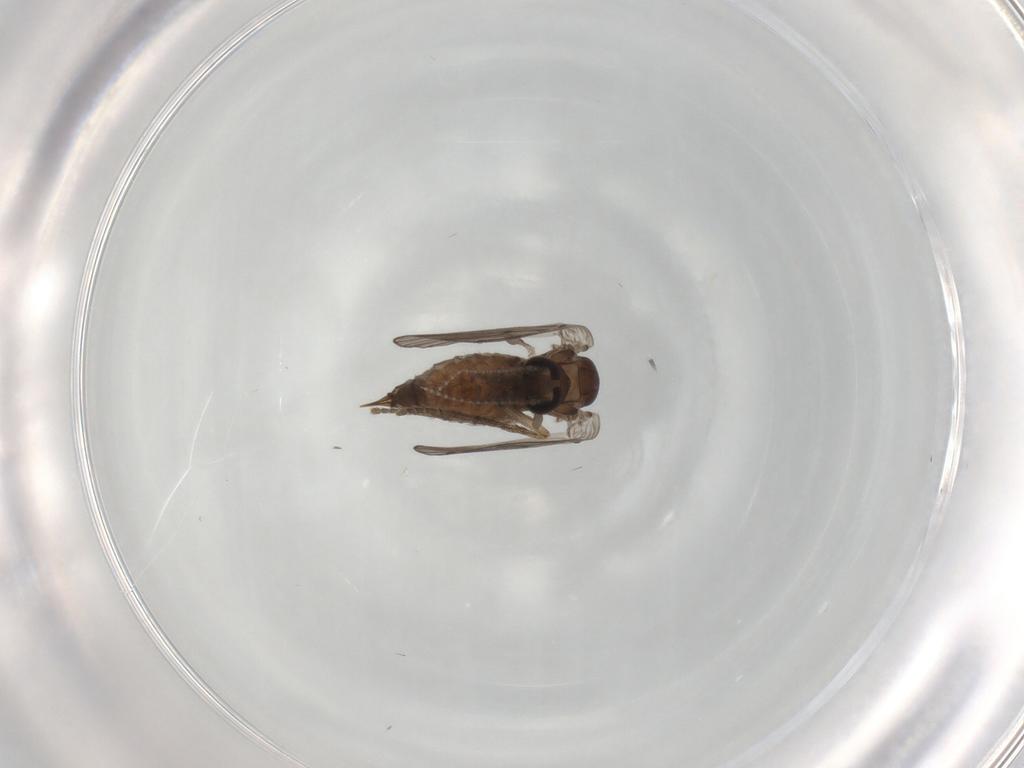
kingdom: Animalia
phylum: Arthropoda
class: Insecta
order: Diptera
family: Psychodidae
